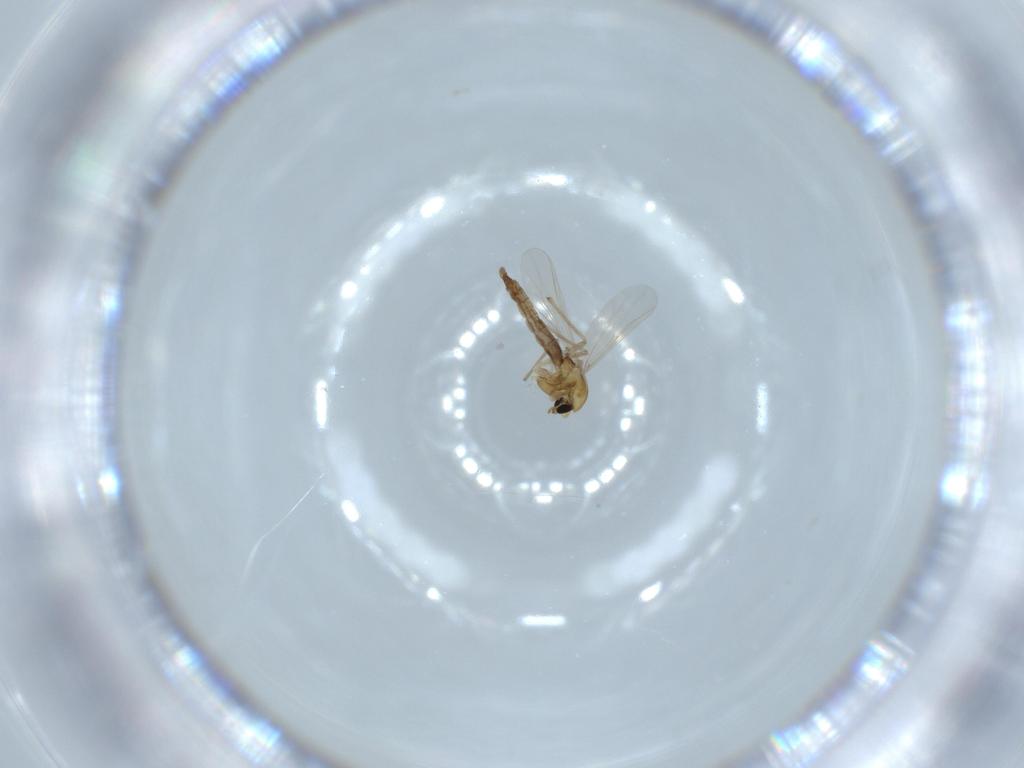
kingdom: Animalia
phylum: Arthropoda
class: Insecta
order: Diptera
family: Chironomidae
